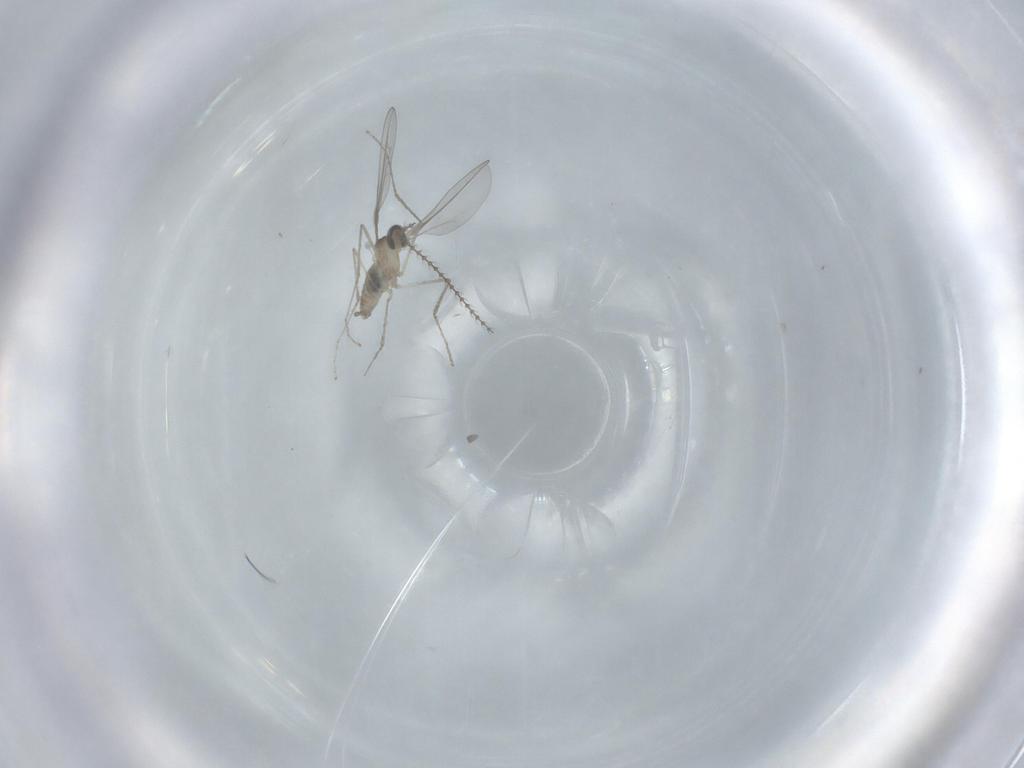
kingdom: Animalia
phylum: Arthropoda
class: Insecta
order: Diptera
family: Cecidomyiidae
